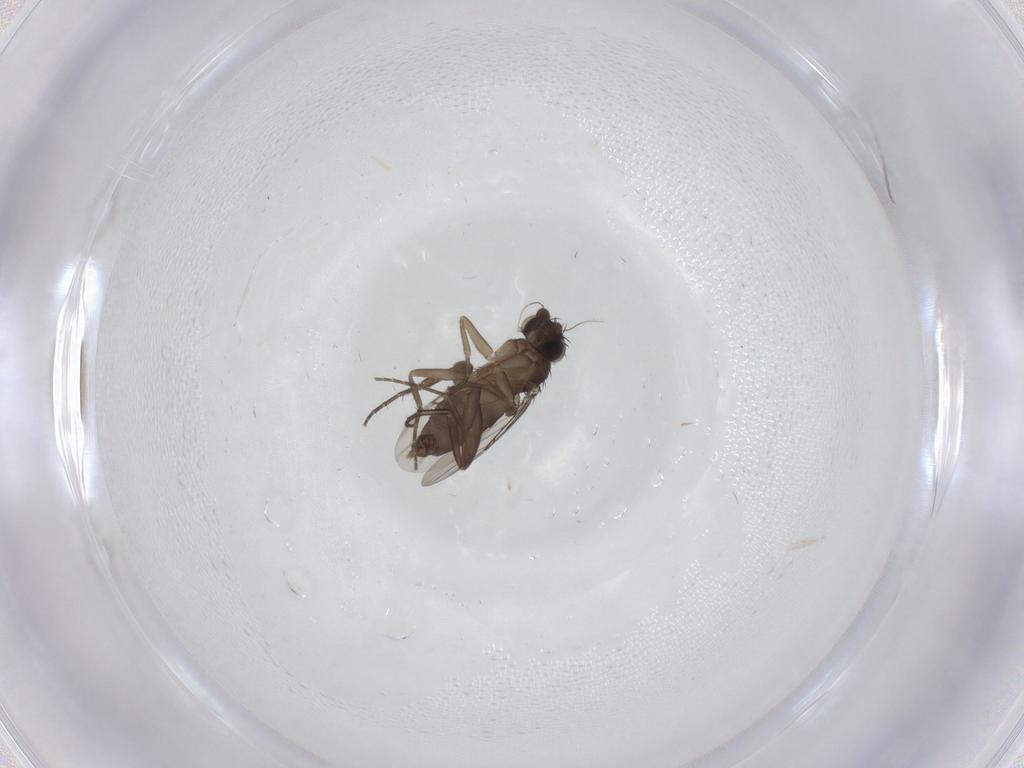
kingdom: Animalia
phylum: Arthropoda
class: Insecta
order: Diptera
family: Phoridae
